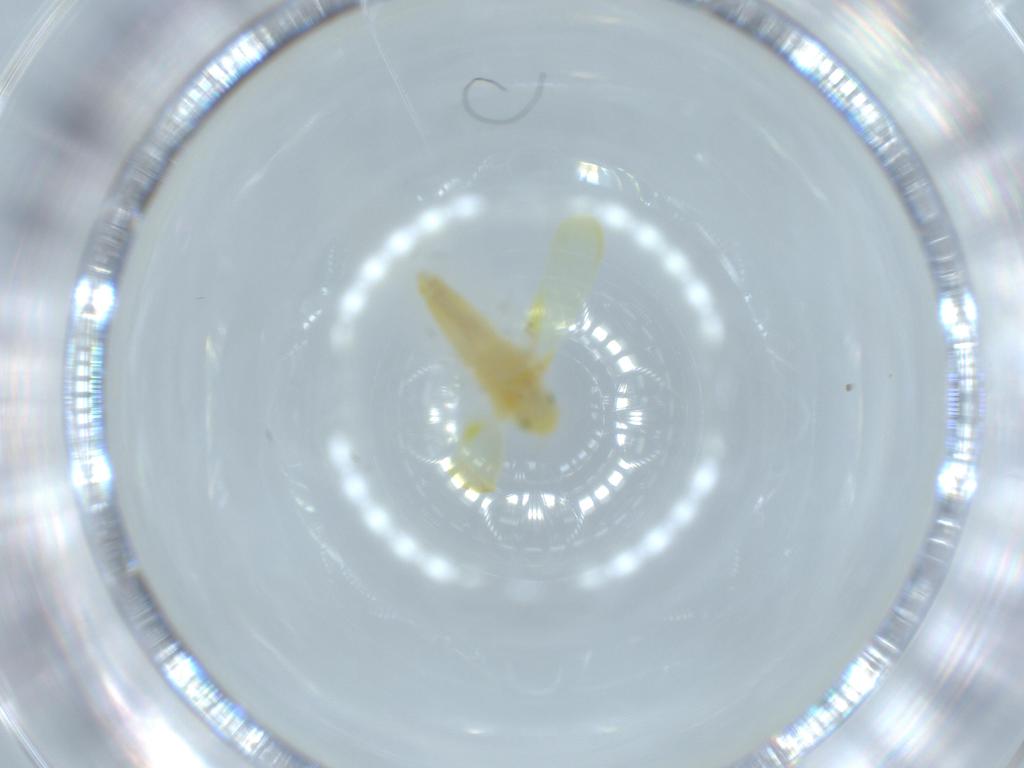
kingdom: Animalia
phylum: Arthropoda
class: Insecta
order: Hemiptera
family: Cicadellidae
